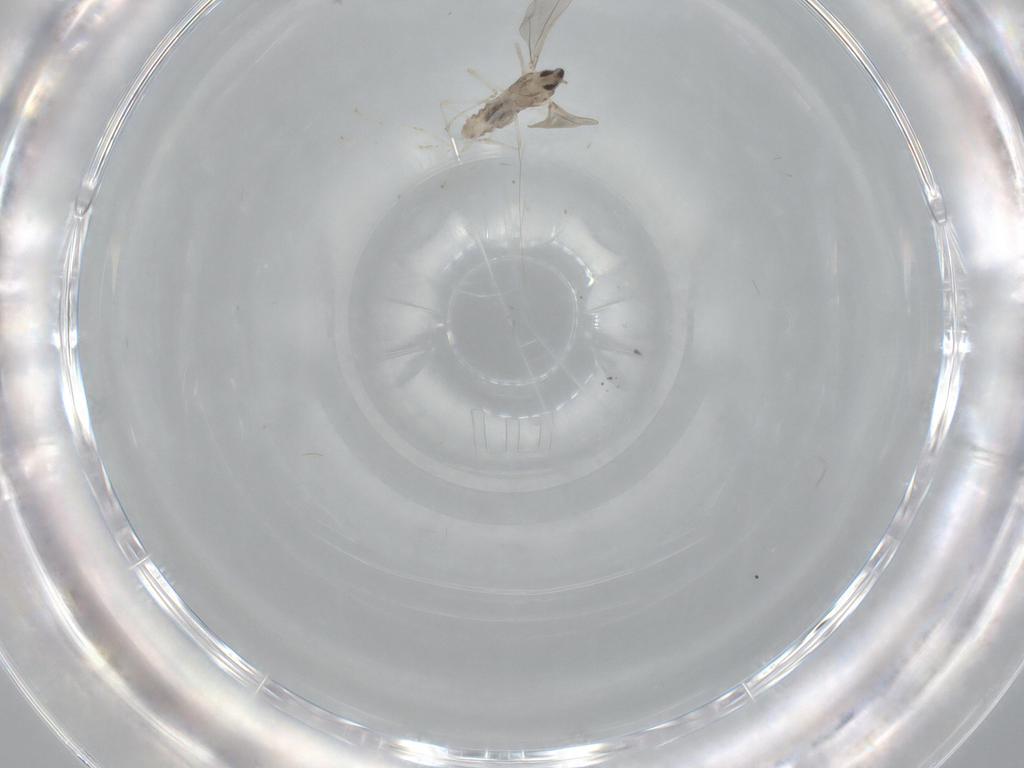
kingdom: Animalia
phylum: Arthropoda
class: Insecta
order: Diptera
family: Cecidomyiidae
